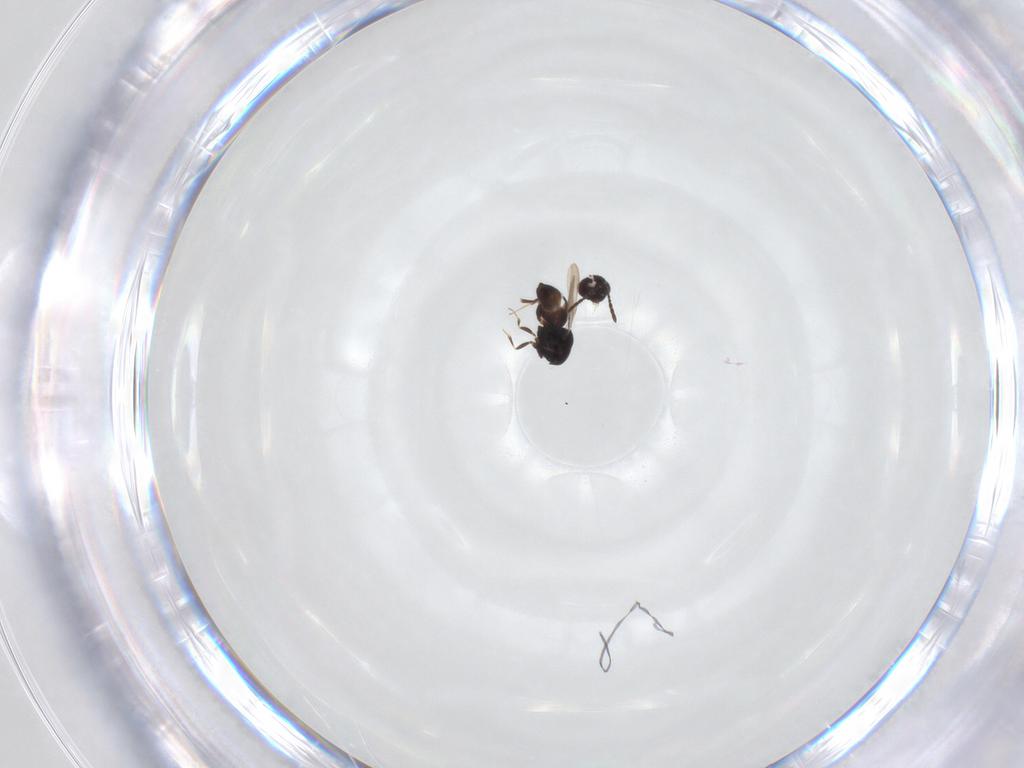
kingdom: Animalia
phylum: Arthropoda
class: Insecta
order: Hymenoptera
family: Ceraphronidae
